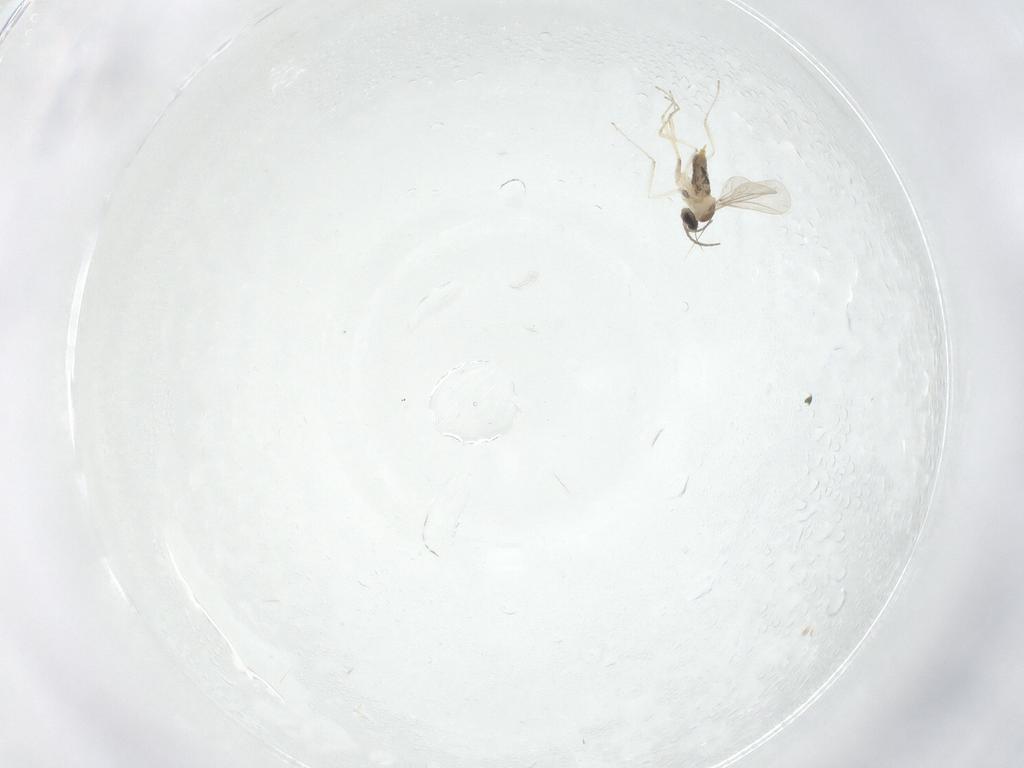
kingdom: Animalia
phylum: Arthropoda
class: Insecta
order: Diptera
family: Cecidomyiidae
